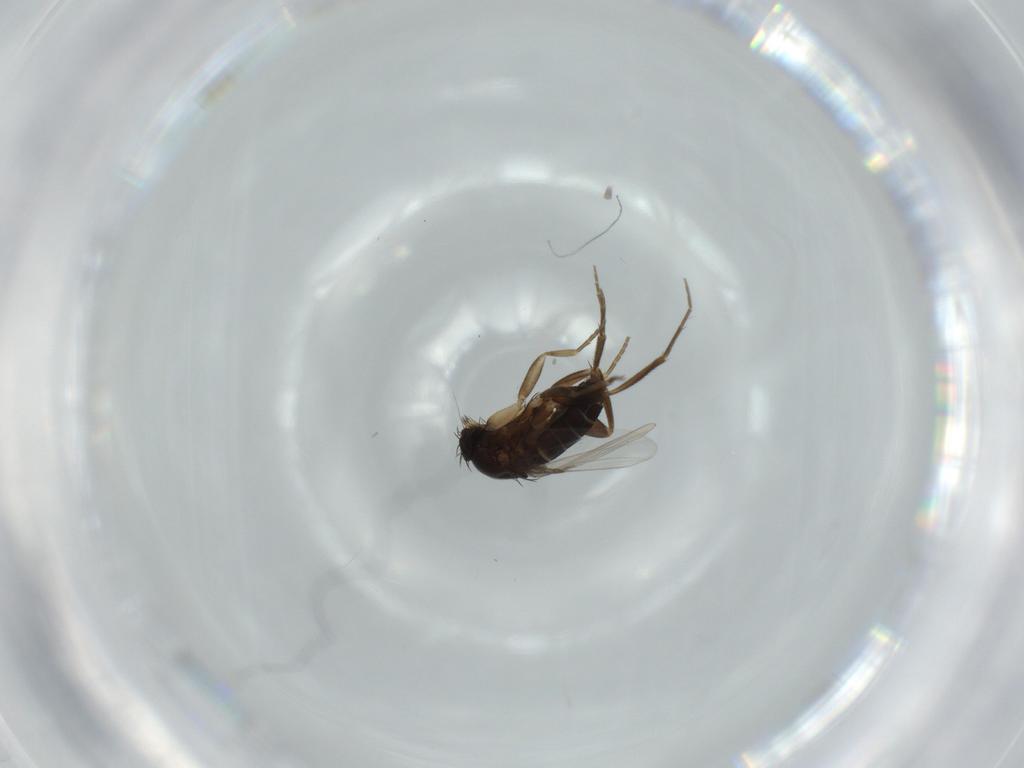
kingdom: Animalia
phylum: Arthropoda
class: Insecta
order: Diptera
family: Phoridae
